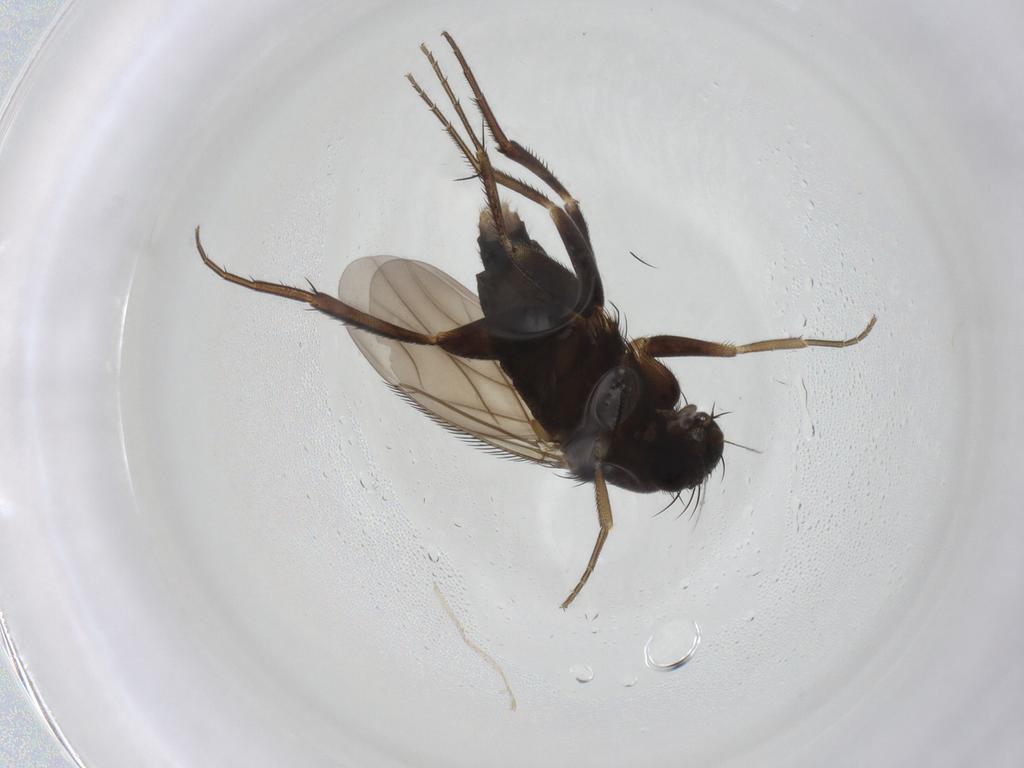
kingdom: Animalia
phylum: Arthropoda
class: Insecta
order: Diptera
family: Phoridae
